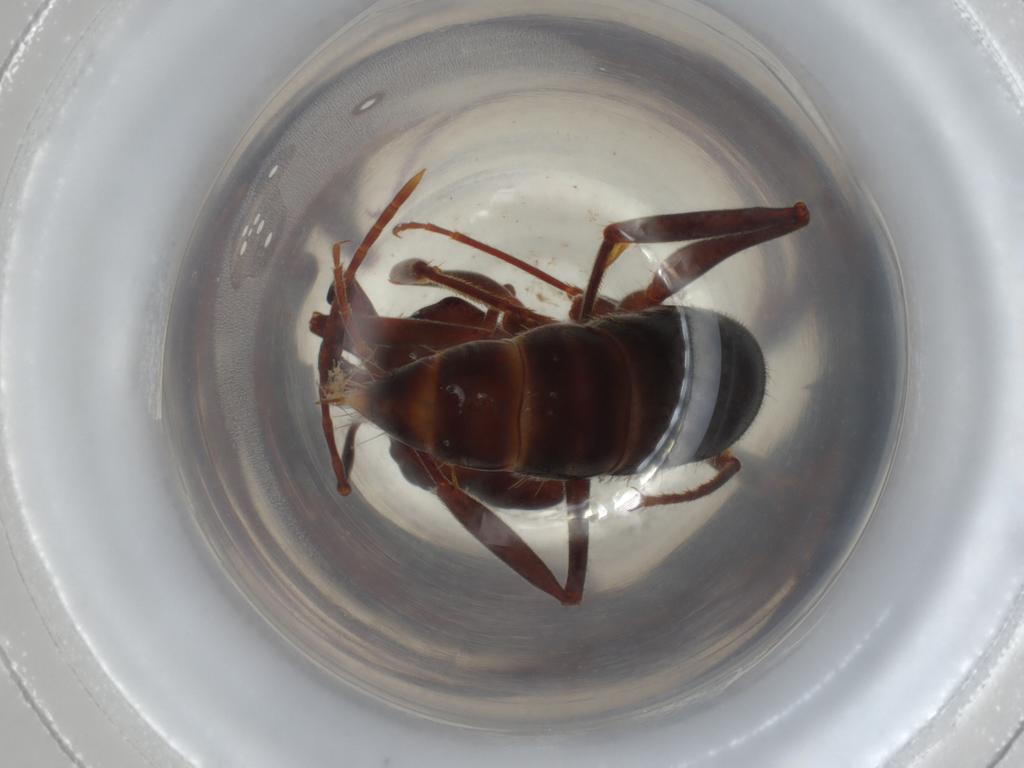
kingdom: Animalia
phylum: Arthropoda
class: Insecta
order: Hymenoptera
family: Formicidae
